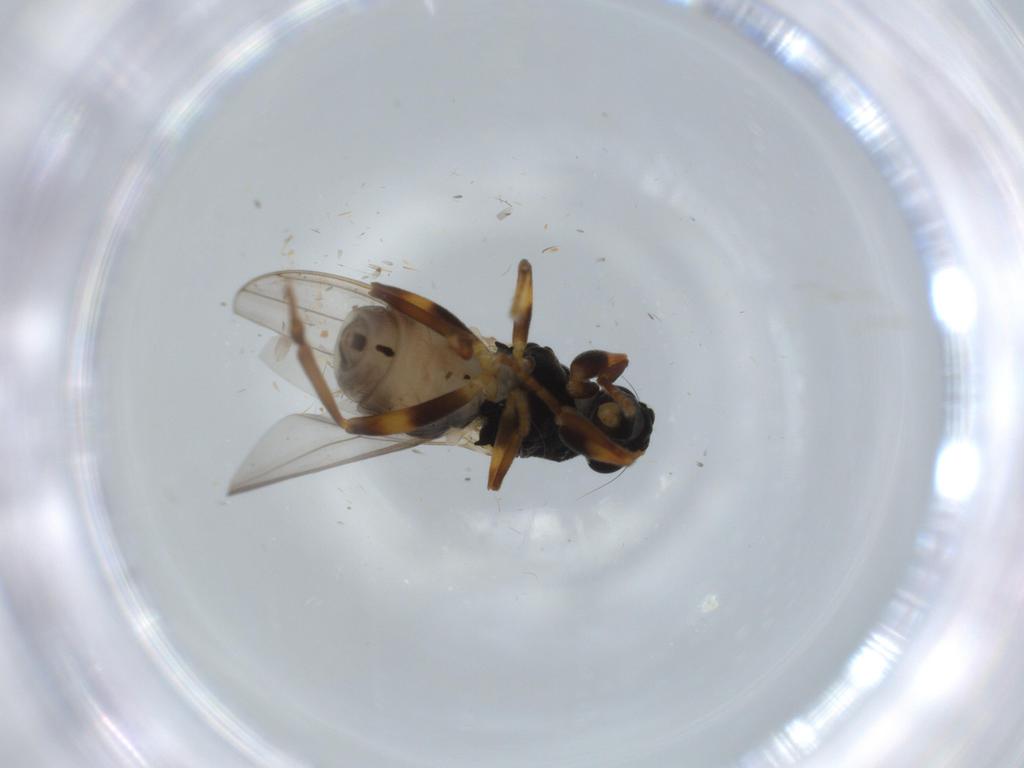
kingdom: Animalia
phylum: Arthropoda
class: Insecta
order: Diptera
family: Sphaeroceridae
